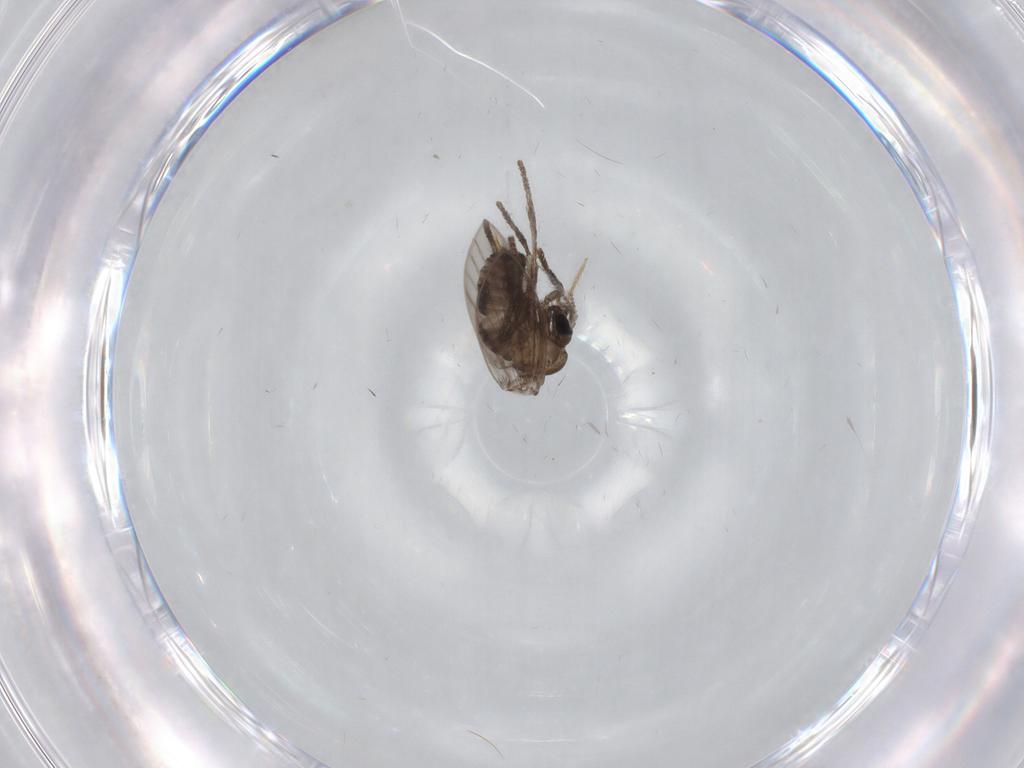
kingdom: Animalia
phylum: Arthropoda
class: Insecta
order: Diptera
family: Psychodidae
